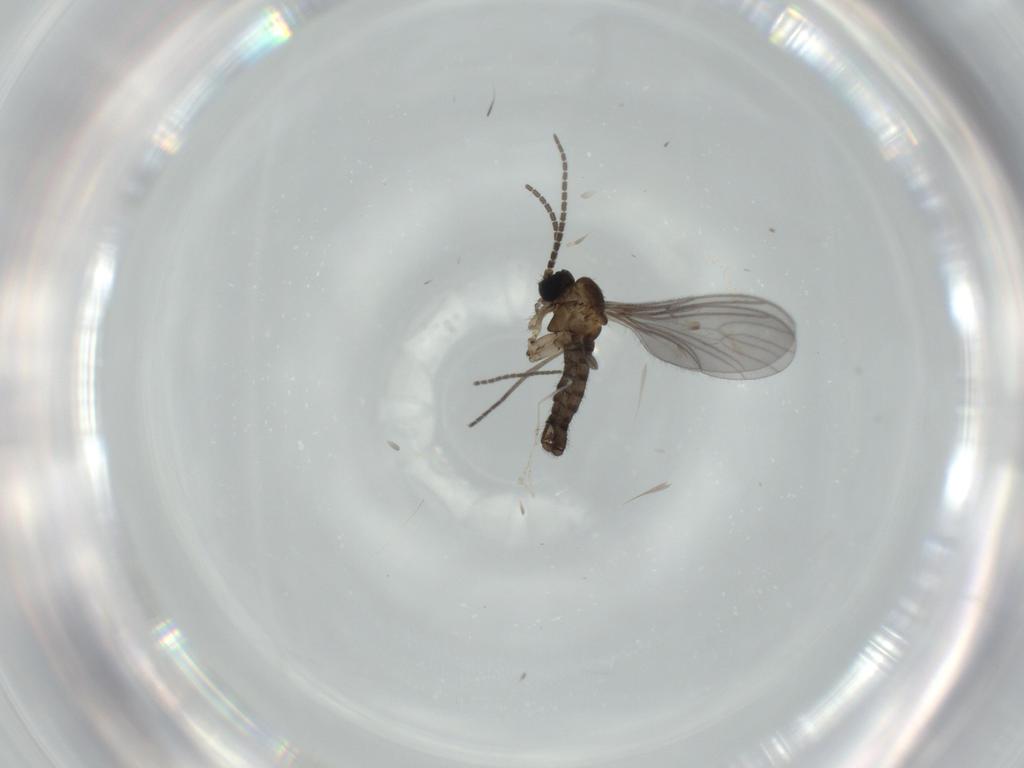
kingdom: Animalia
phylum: Arthropoda
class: Insecta
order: Diptera
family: Sciaridae
